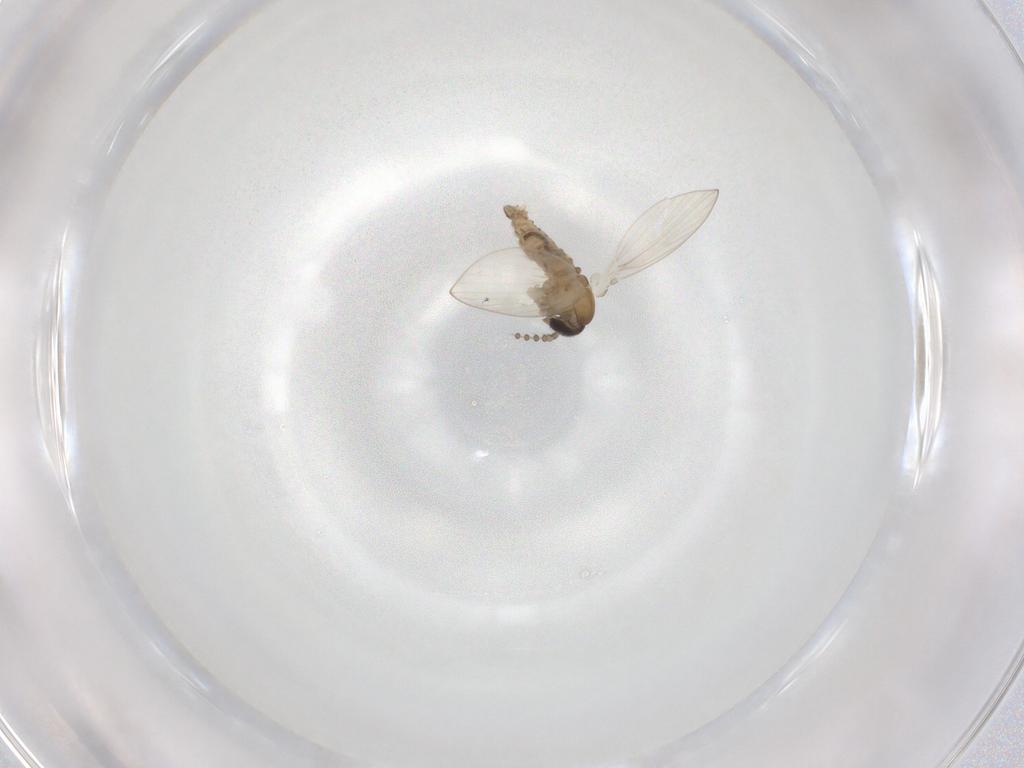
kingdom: Animalia
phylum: Arthropoda
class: Insecta
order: Diptera
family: Psychodidae
